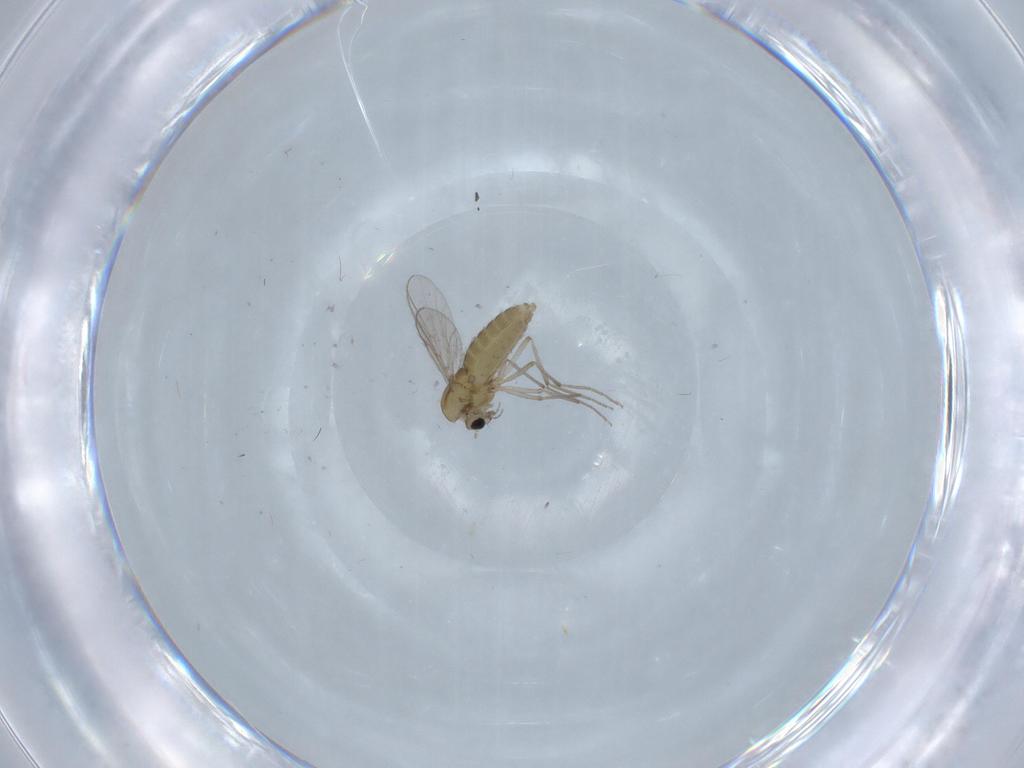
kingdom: Animalia
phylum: Arthropoda
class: Insecta
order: Diptera
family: Chironomidae
